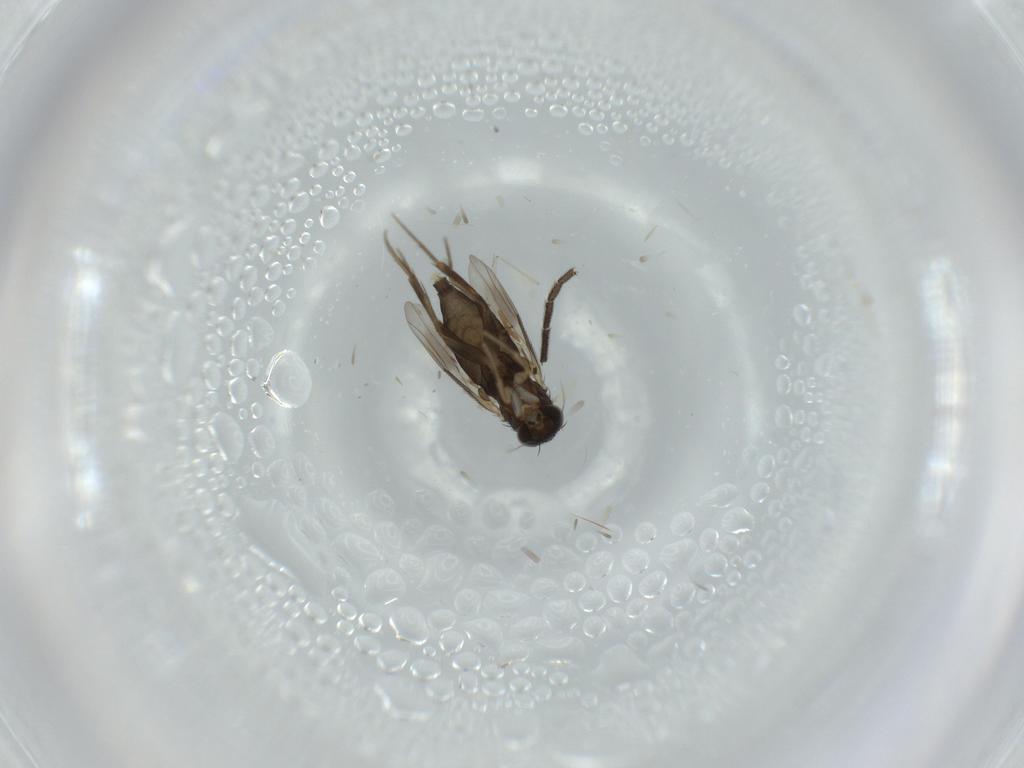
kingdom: Animalia
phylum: Arthropoda
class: Insecta
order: Diptera
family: Phoridae
